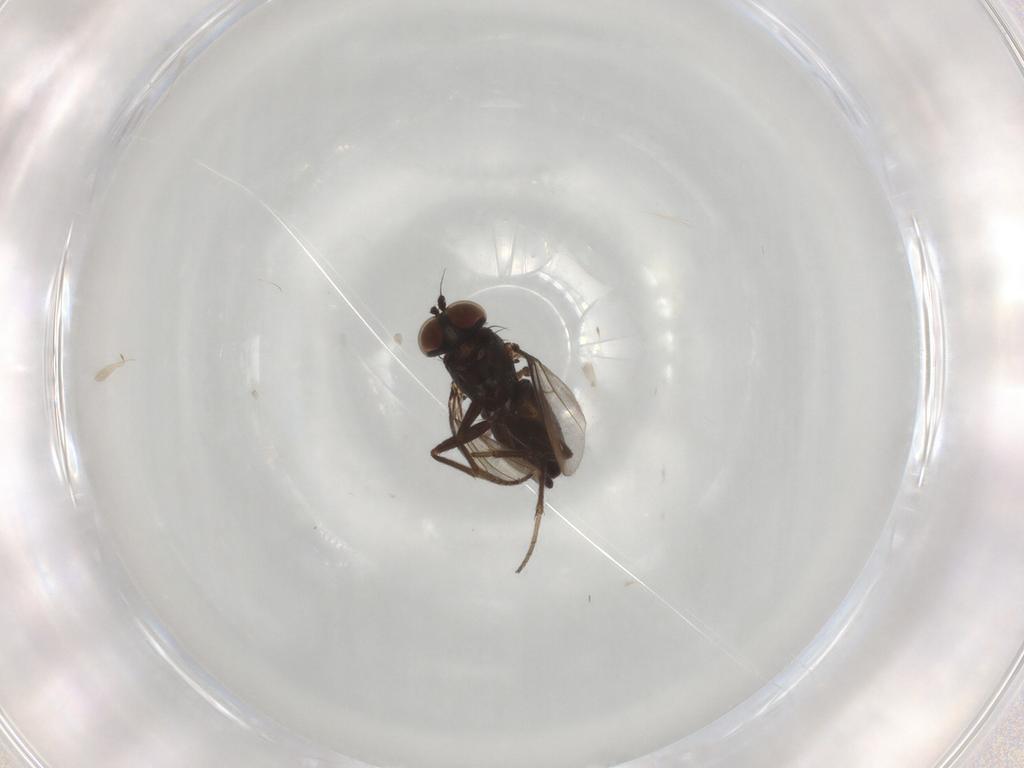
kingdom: Animalia
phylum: Arthropoda
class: Insecta
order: Diptera
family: Dolichopodidae
